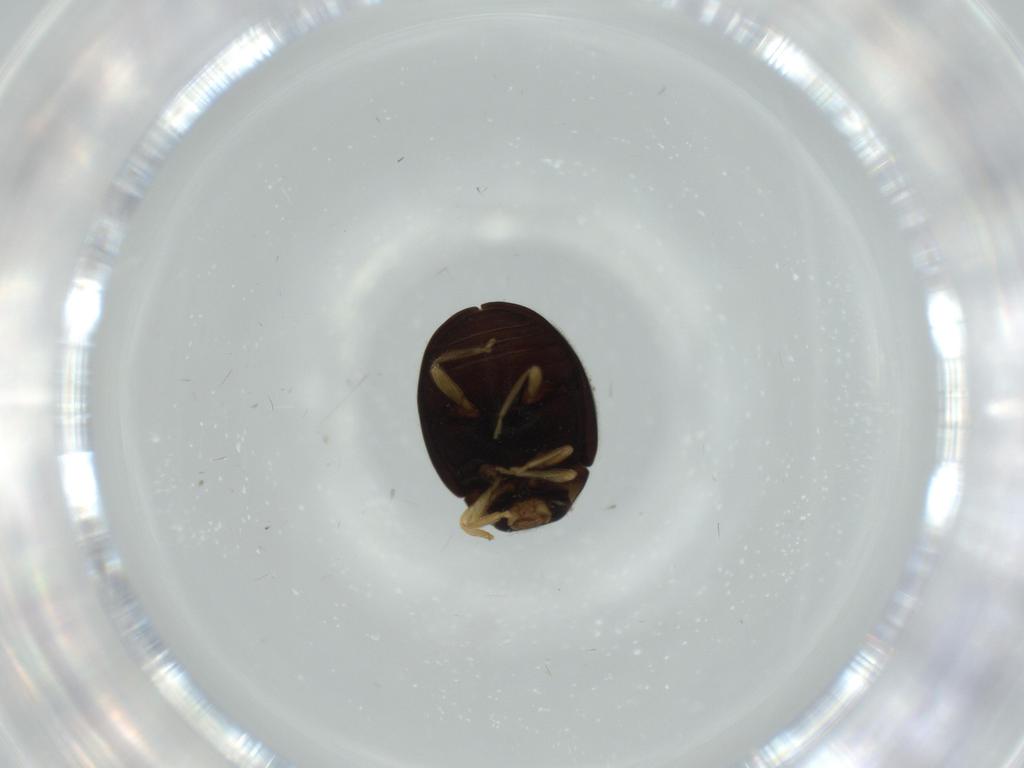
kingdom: Animalia
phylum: Arthropoda
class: Insecta
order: Coleoptera
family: Coccinellidae
